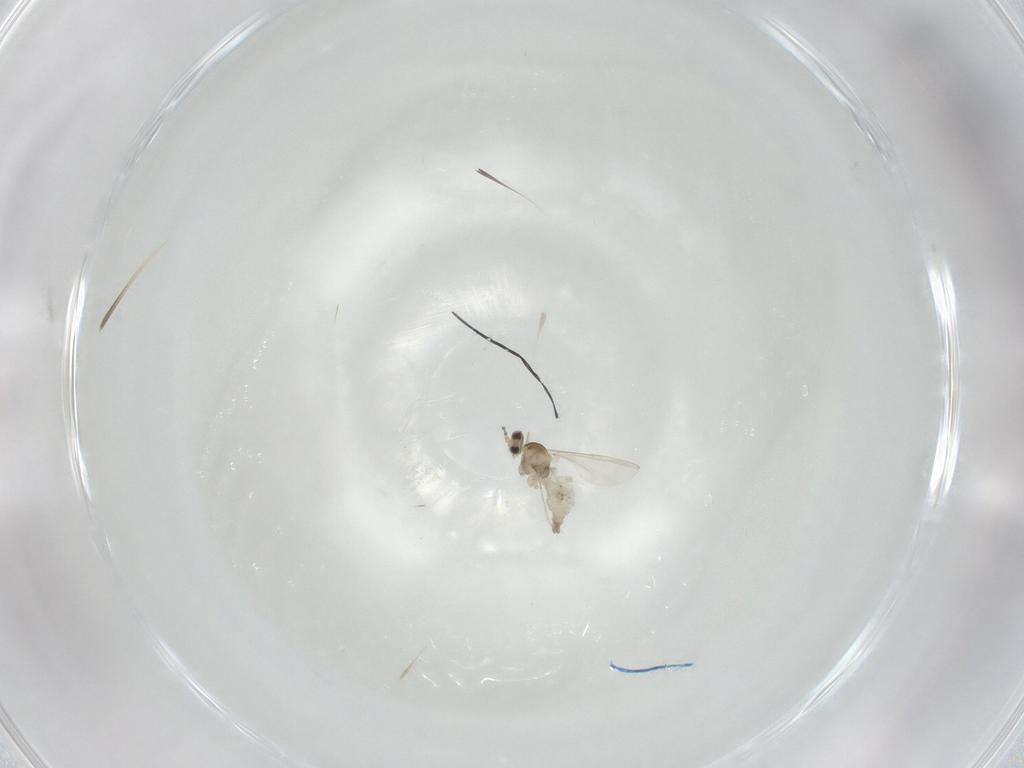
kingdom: Animalia
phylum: Arthropoda
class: Insecta
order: Diptera
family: Cecidomyiidae
